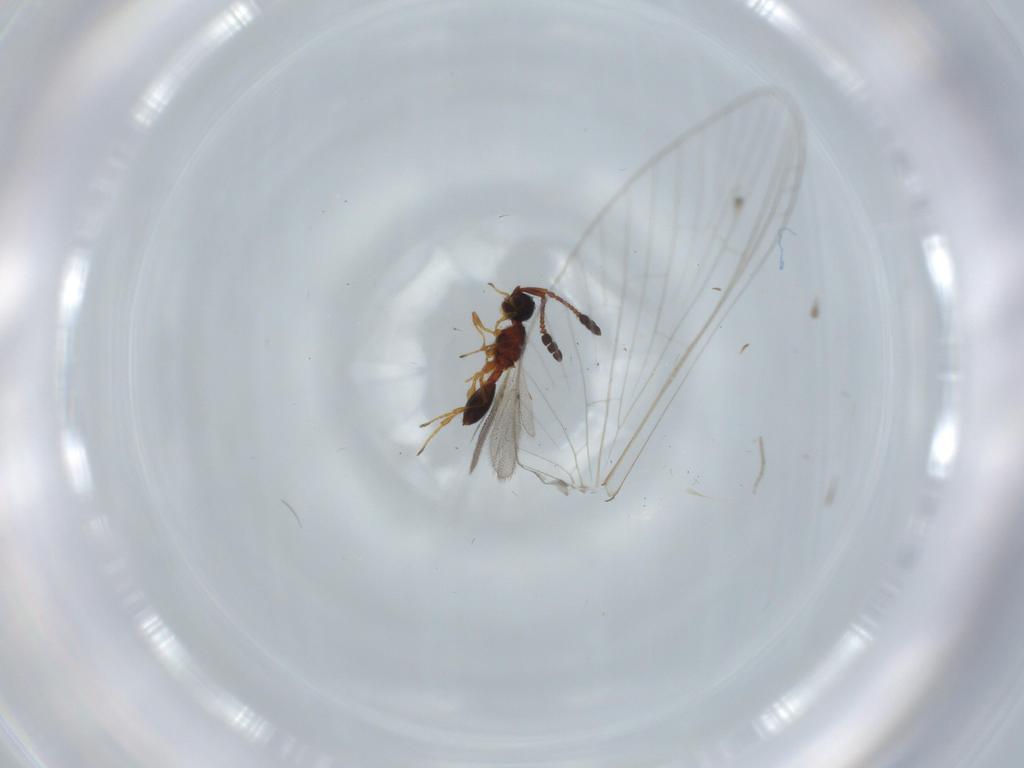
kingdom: Animalia
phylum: Arthropoda
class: Insecta
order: Hymenoptera
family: Diapriidae
